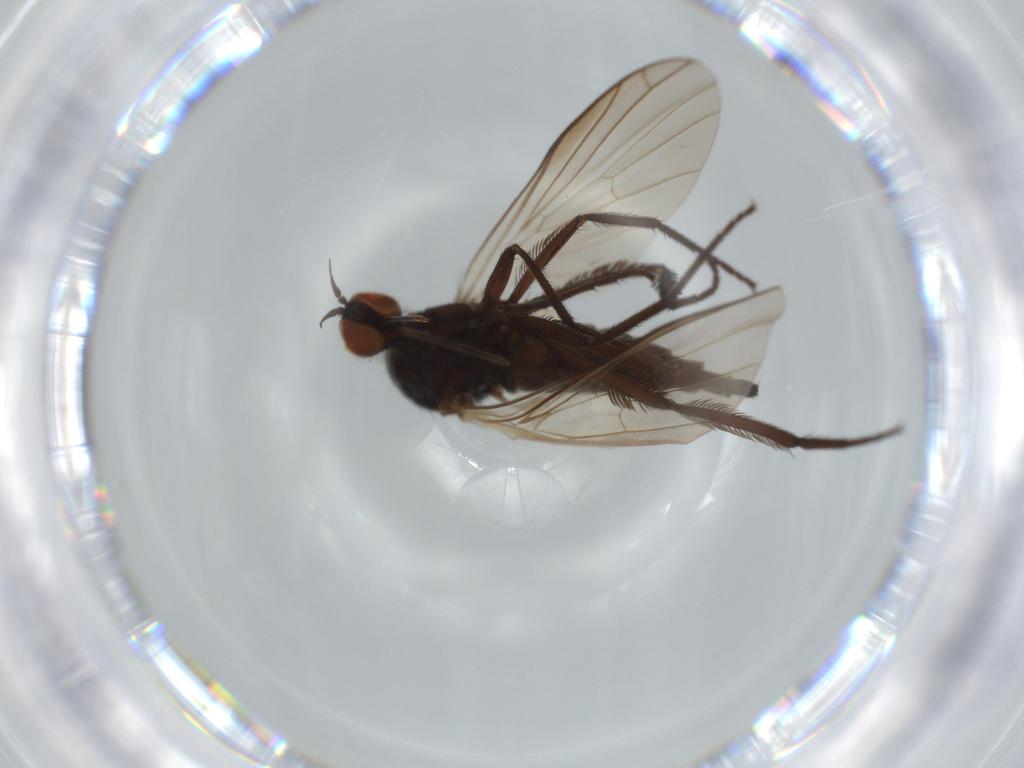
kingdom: Animalia
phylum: Arthropoda
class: Insecta
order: Diptera
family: Empididae
